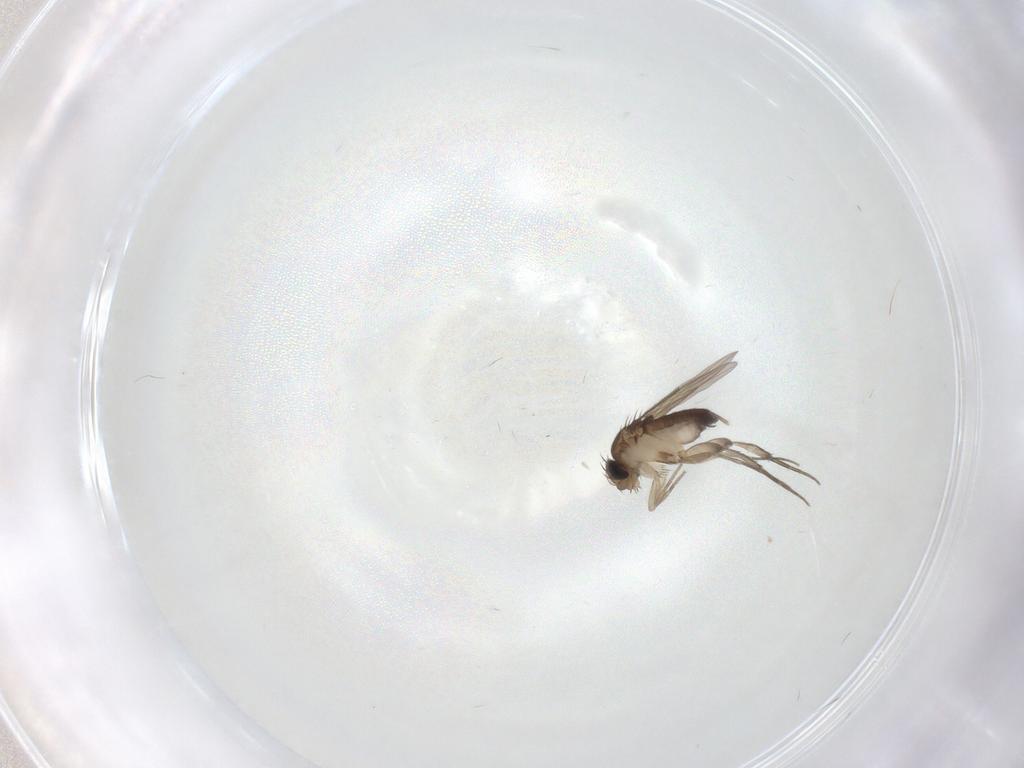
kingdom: Animalia
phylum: Arthropoda
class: Insecta
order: Diptera
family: Cecidomyiidae
